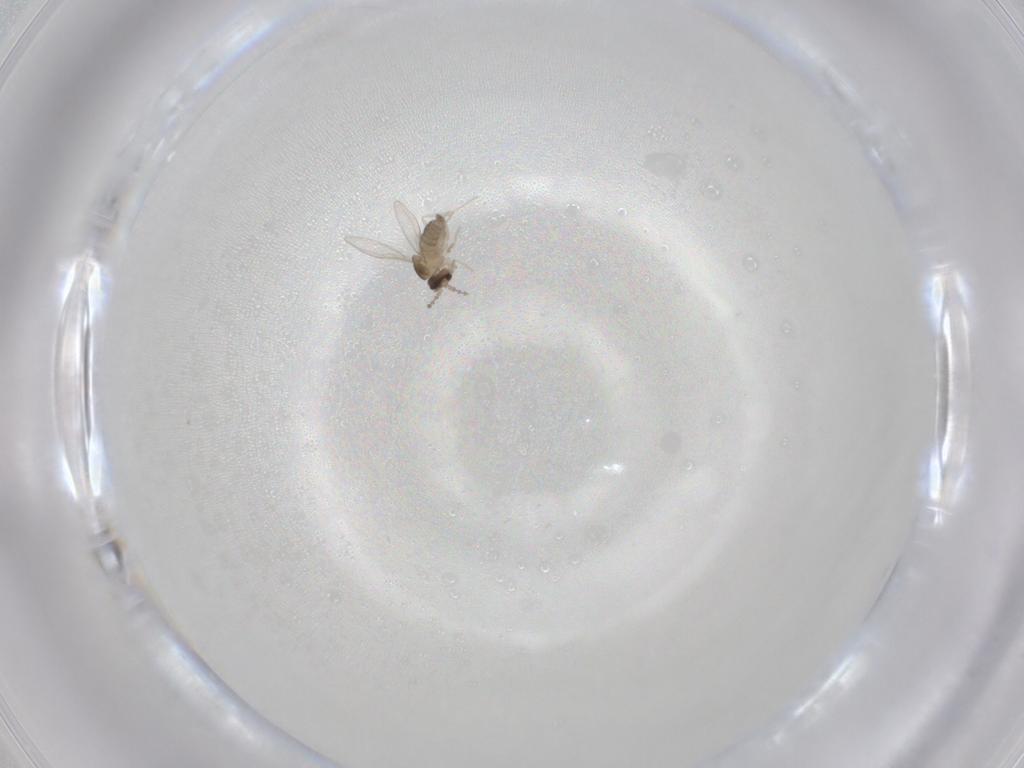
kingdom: Animalia
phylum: Arthropoda
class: Insecta
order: Diptera
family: Cecidomyiidae
